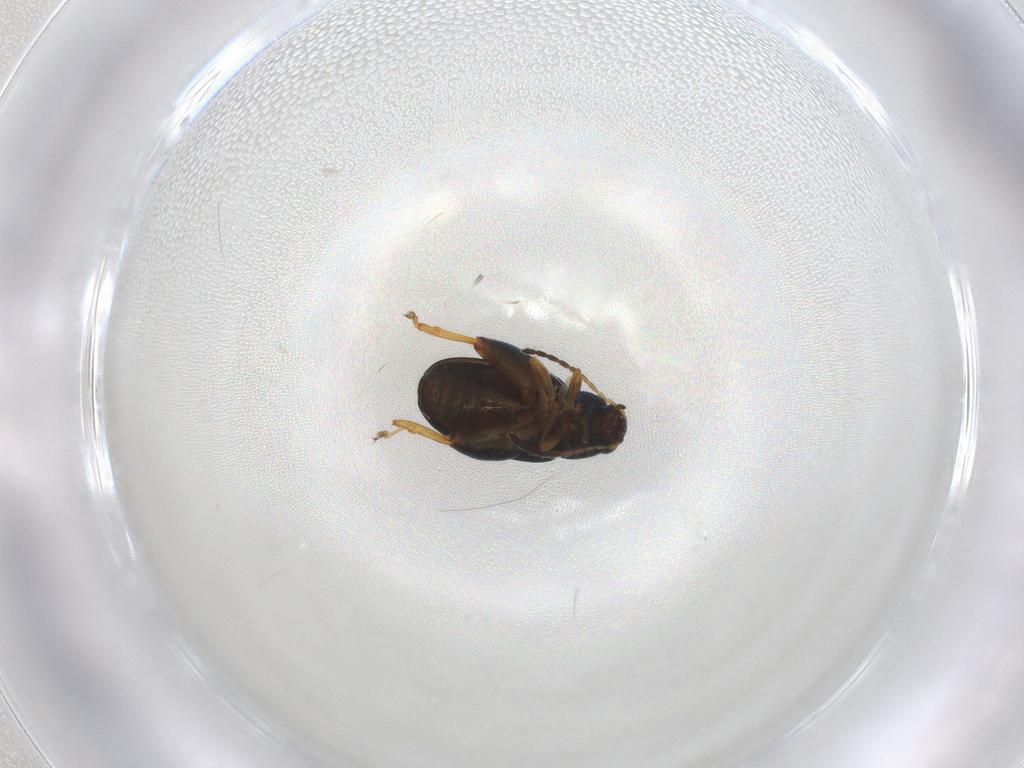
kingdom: Animalia
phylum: Arthropoda
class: Insecta
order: Coleoptera
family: Chrysomelidae
